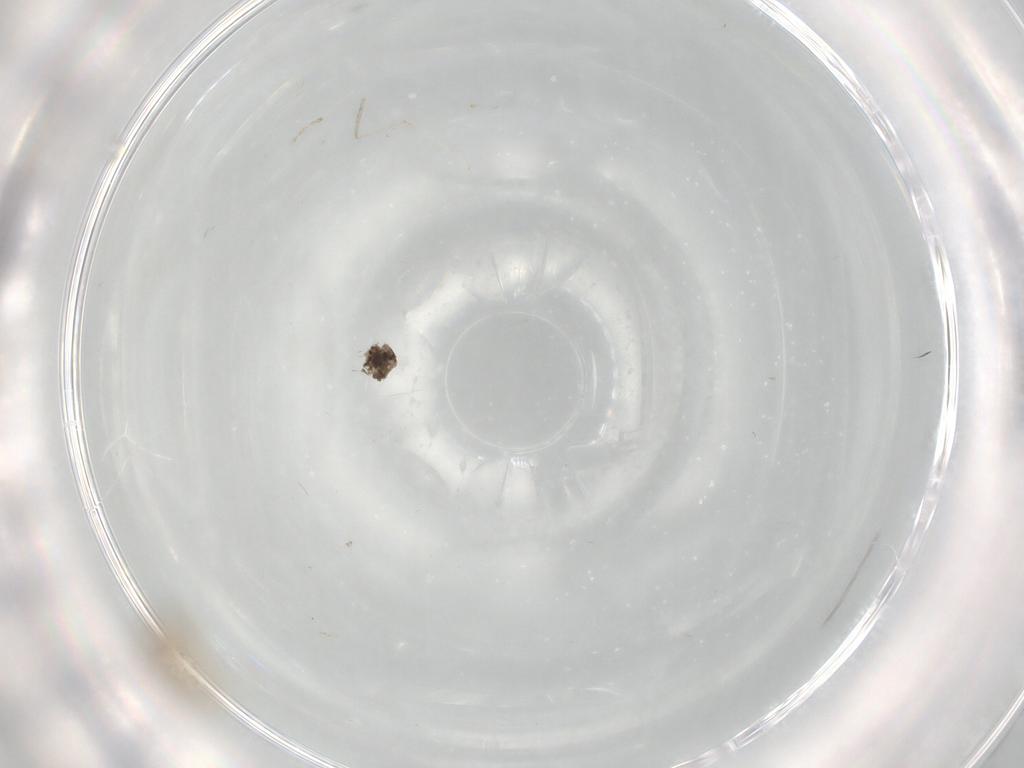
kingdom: Animalia
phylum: Arthropoda
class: Insecta
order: Diptera
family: Cecidomyiidae
